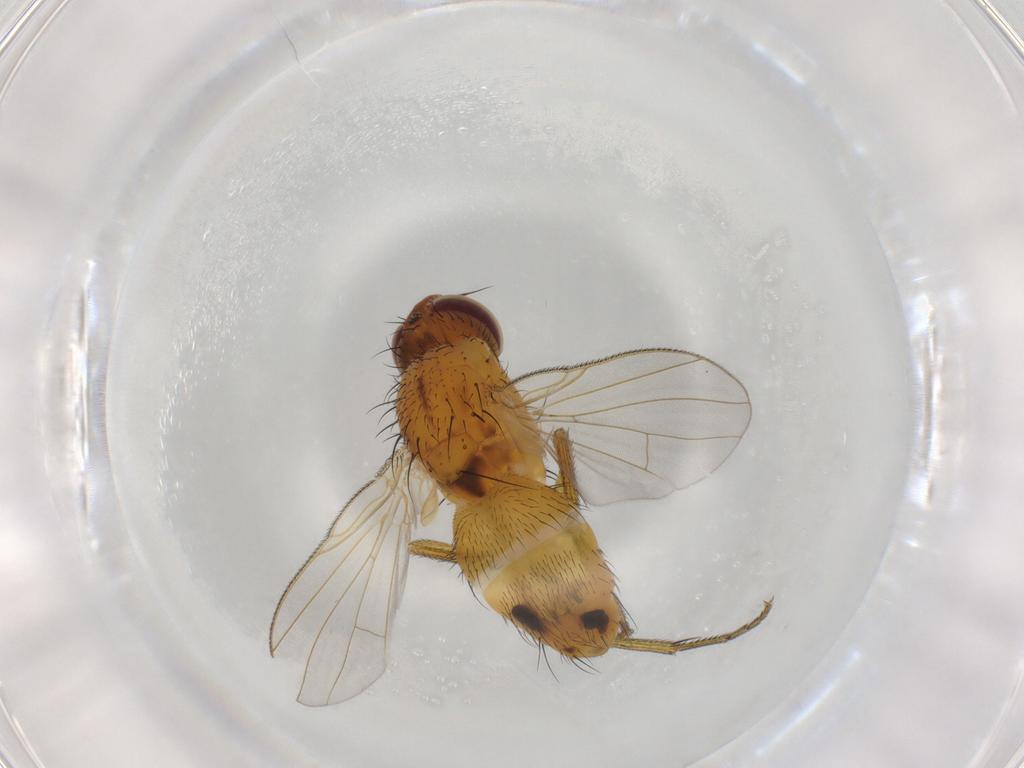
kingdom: Animalia
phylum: Arthropoda
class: Insecta
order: Diptera
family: Muscidae
